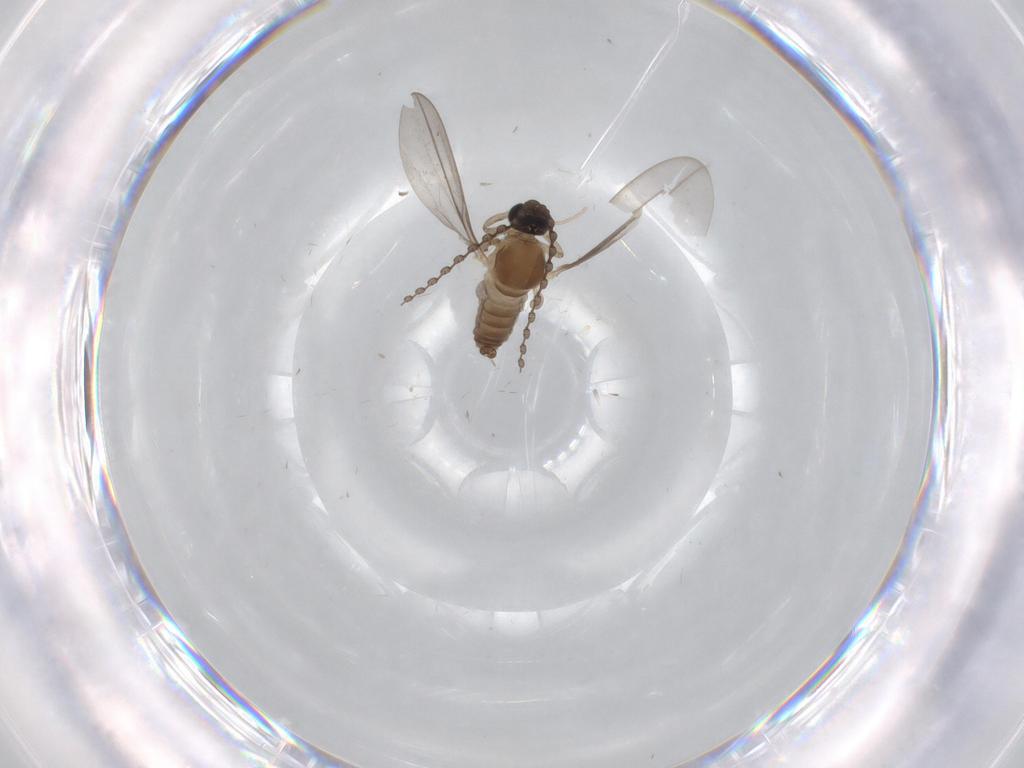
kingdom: Animalia
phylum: Arthropoda
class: Insecta
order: Diptera
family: Cecidomyiidae
